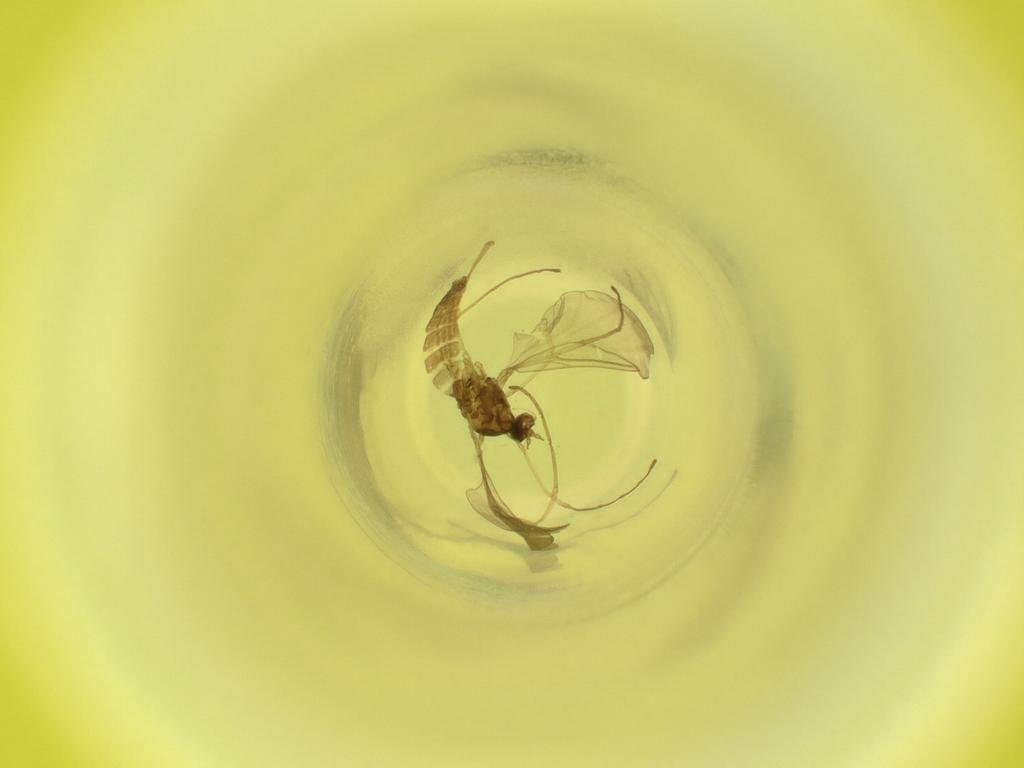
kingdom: Animalia
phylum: Arthropoda
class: Insecta
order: Diptera
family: Cecidomyiidae
